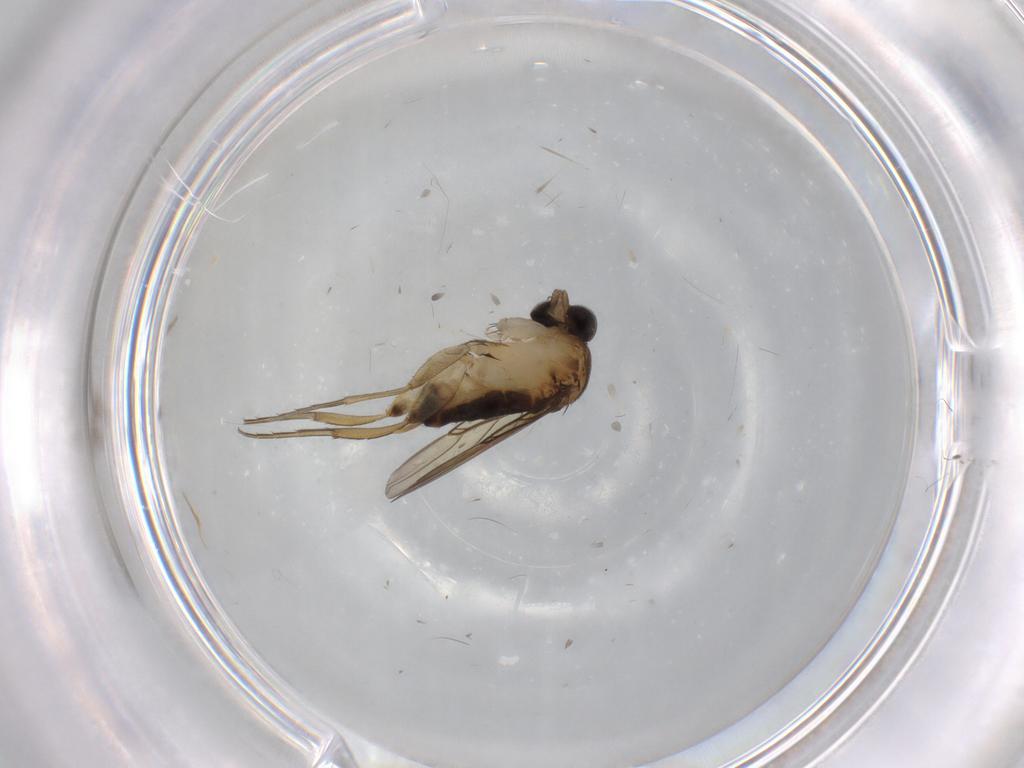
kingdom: Animalia
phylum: Arthropoda
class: Insecta
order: Diptera
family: Phoridae
